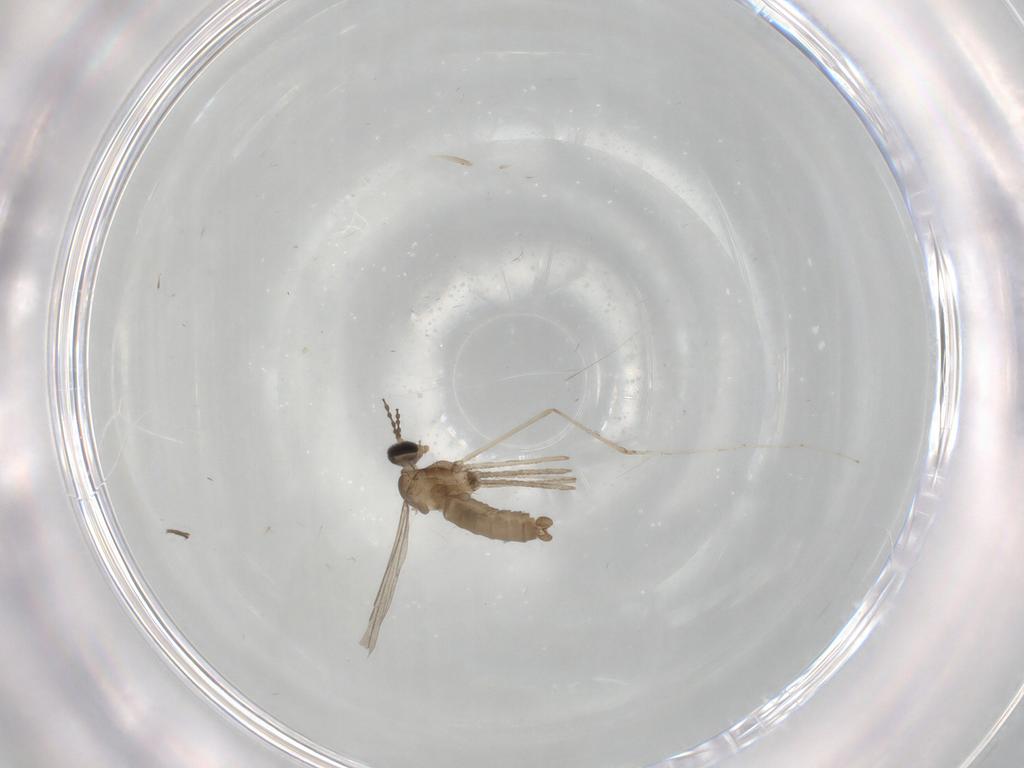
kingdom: Animalia
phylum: Arthropoda
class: Insecta
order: Diptera
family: Cecidomyiidae
